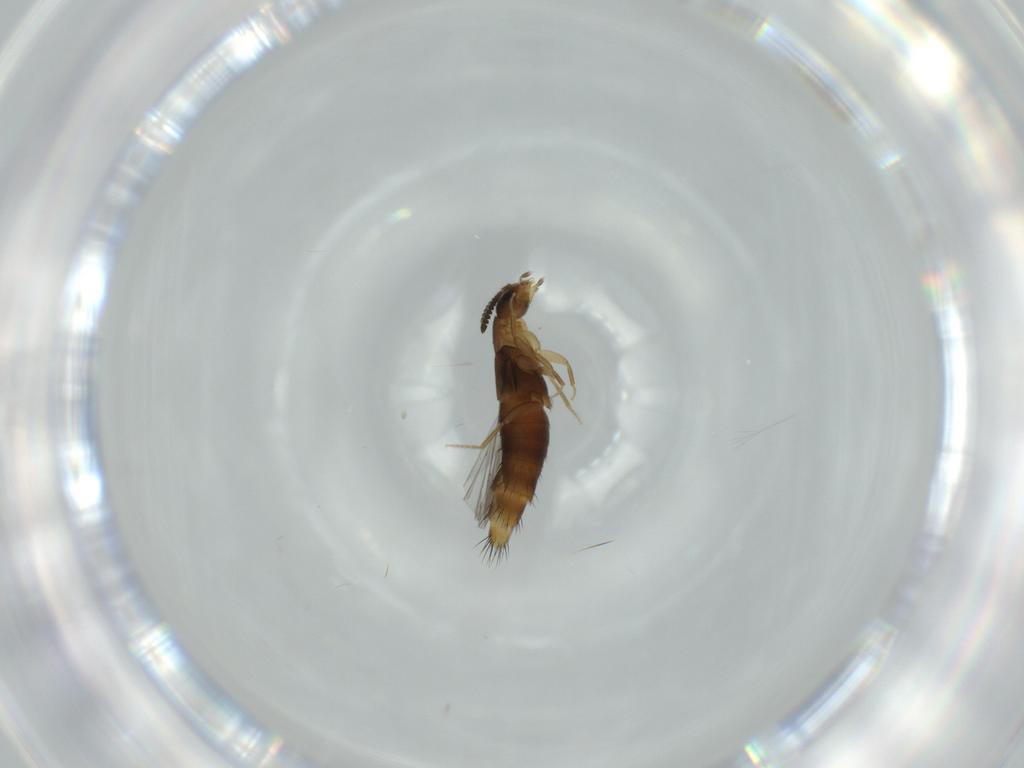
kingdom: Animalia
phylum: Arthropoda
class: Insecta
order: Coleoptera
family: Staphylinidae
